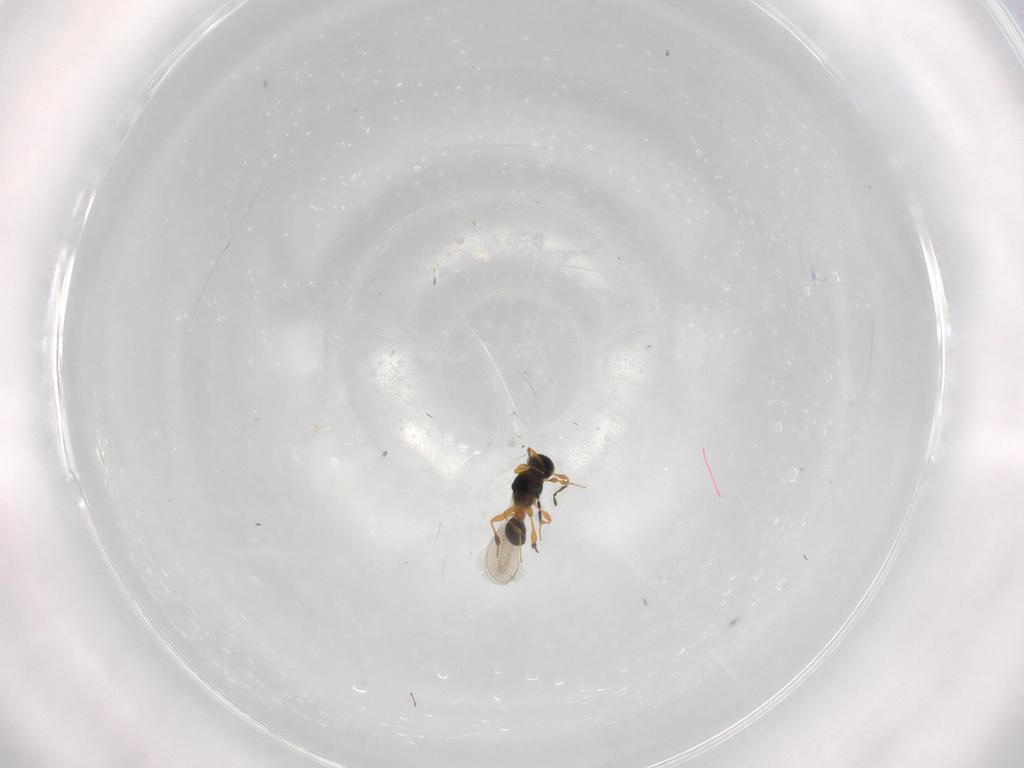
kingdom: Animalia
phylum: Arthropoda
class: Insecta
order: Hymenoptera
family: Platygastridae
